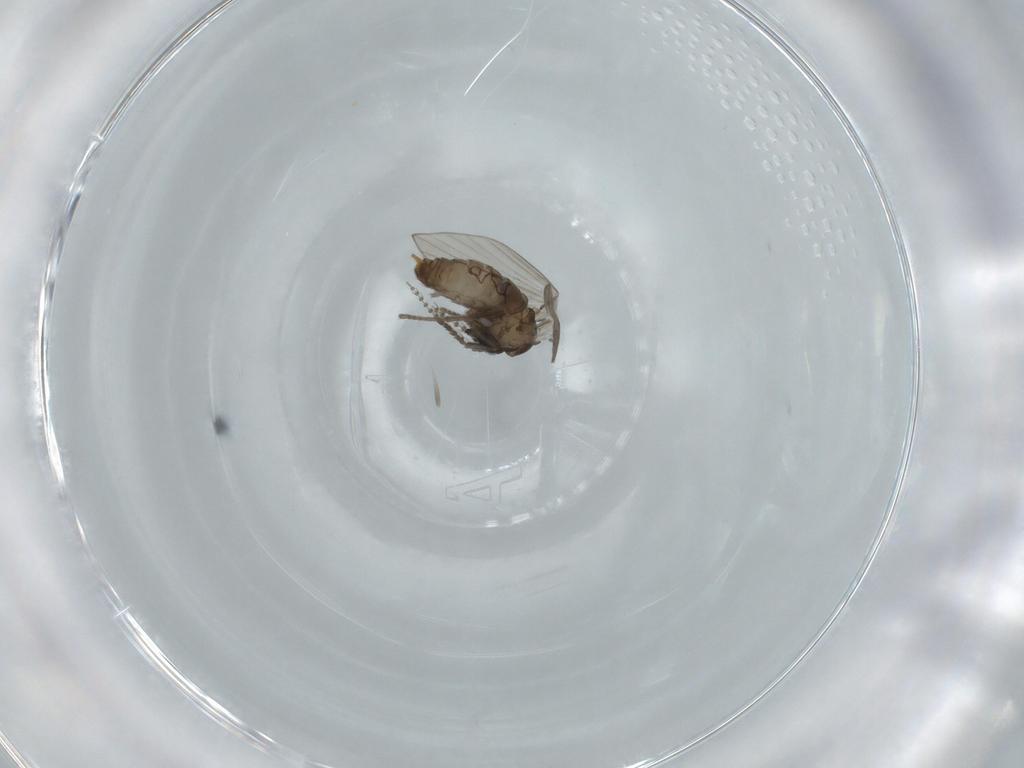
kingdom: Animalia
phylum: Arthropoda
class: Insecta
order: Diptera
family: Psychodidae
